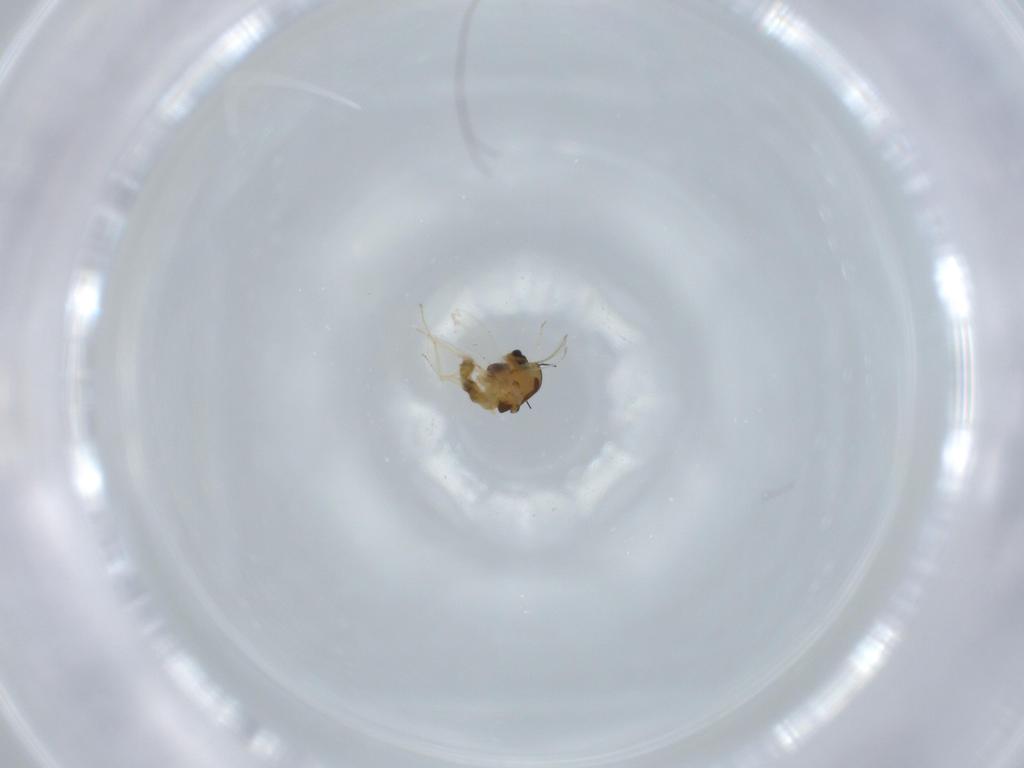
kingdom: Animalia
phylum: Arthropoda
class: Insecta
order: Diptera
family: Chironomidae
